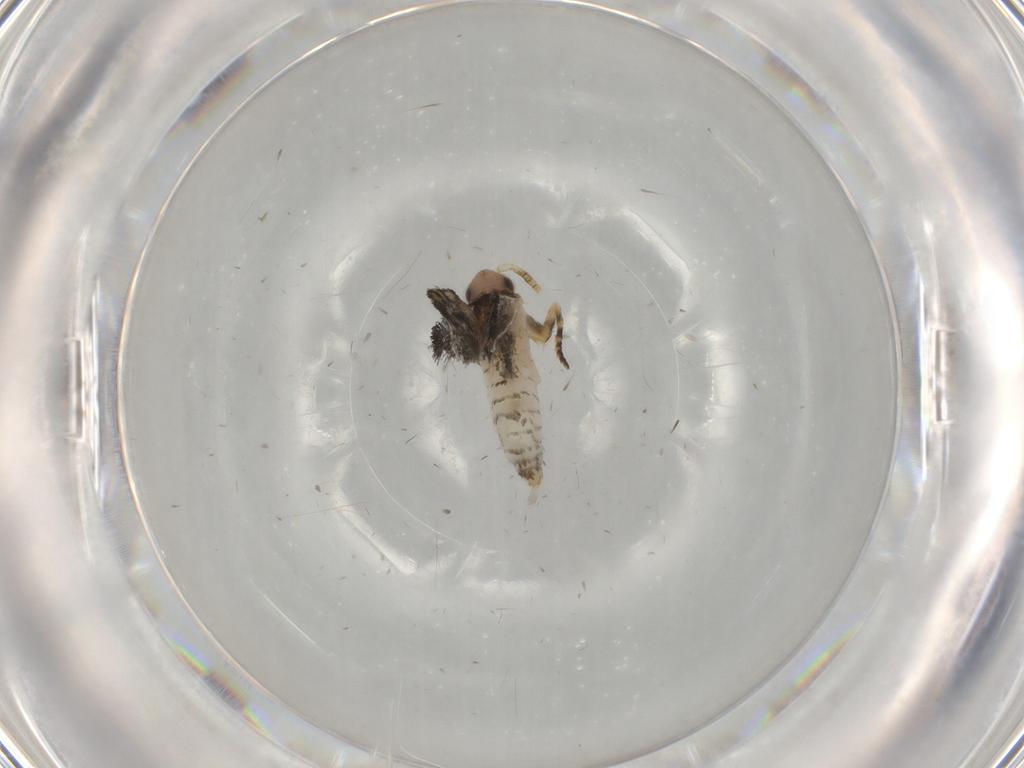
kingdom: Animalia
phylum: Arthropoda
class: Insecta
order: Lepidoptera
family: Tineidae
